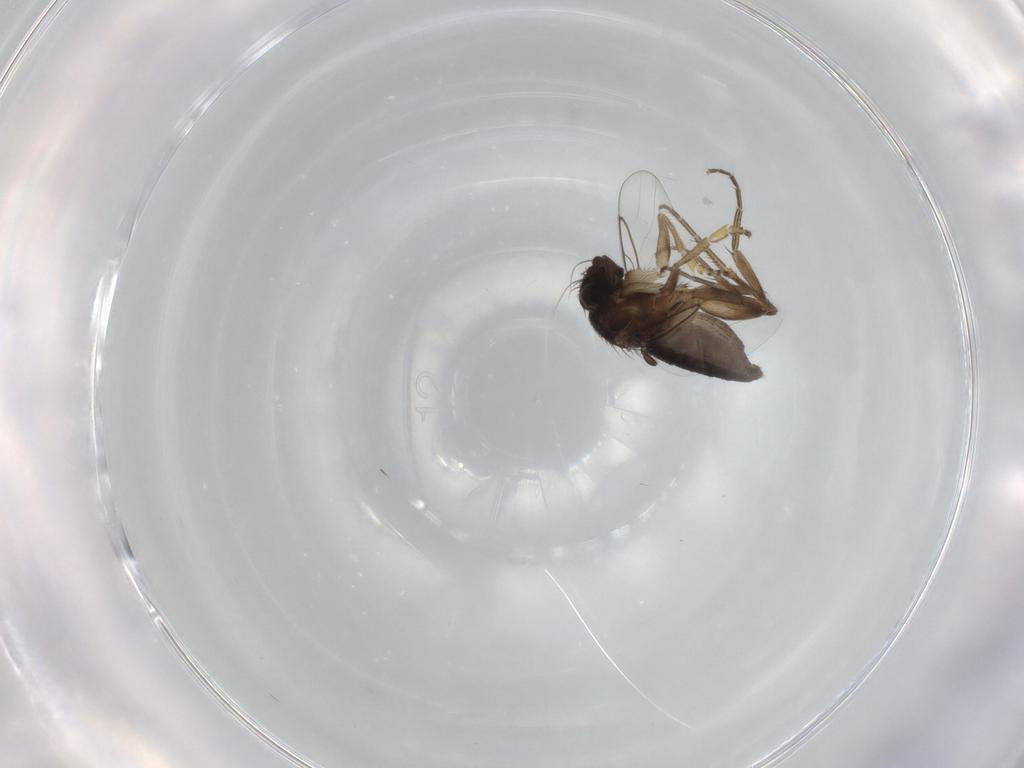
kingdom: Animalia
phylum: Arthropoda
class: Insecta
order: Diptera
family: Phoridae
